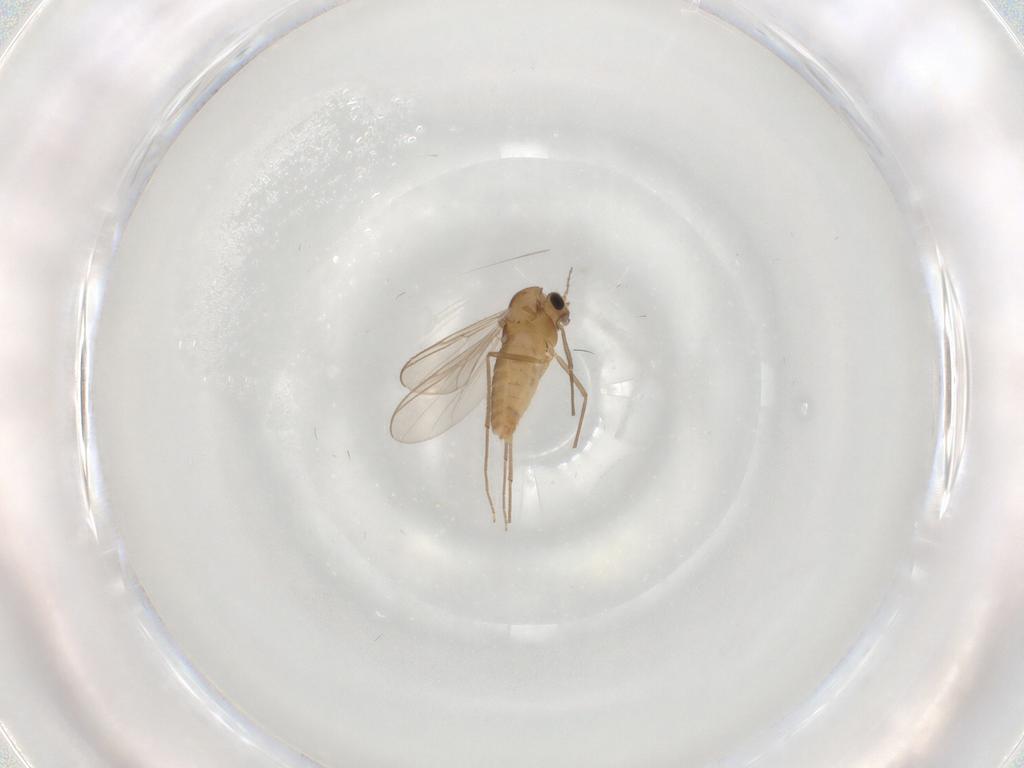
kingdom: Animalia
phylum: Arthropoda
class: Insecta
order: Diptera
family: Chironomidae
